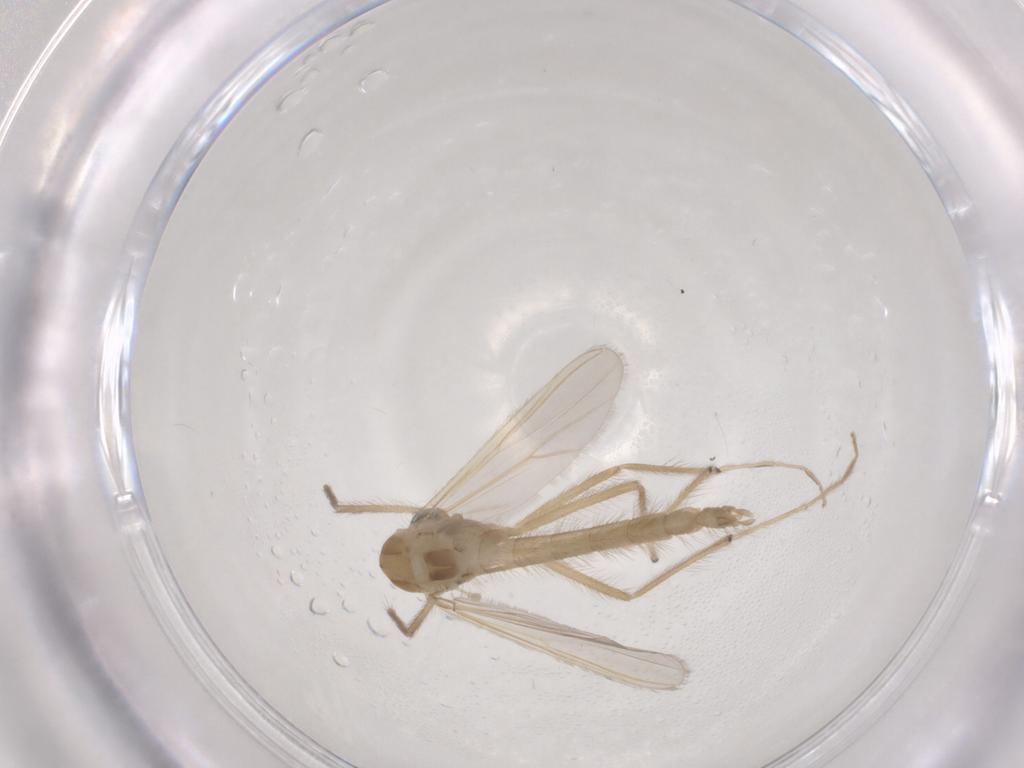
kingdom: Animalia
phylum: Arthropoda
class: Insecta
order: Diptera
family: Chironomidae
